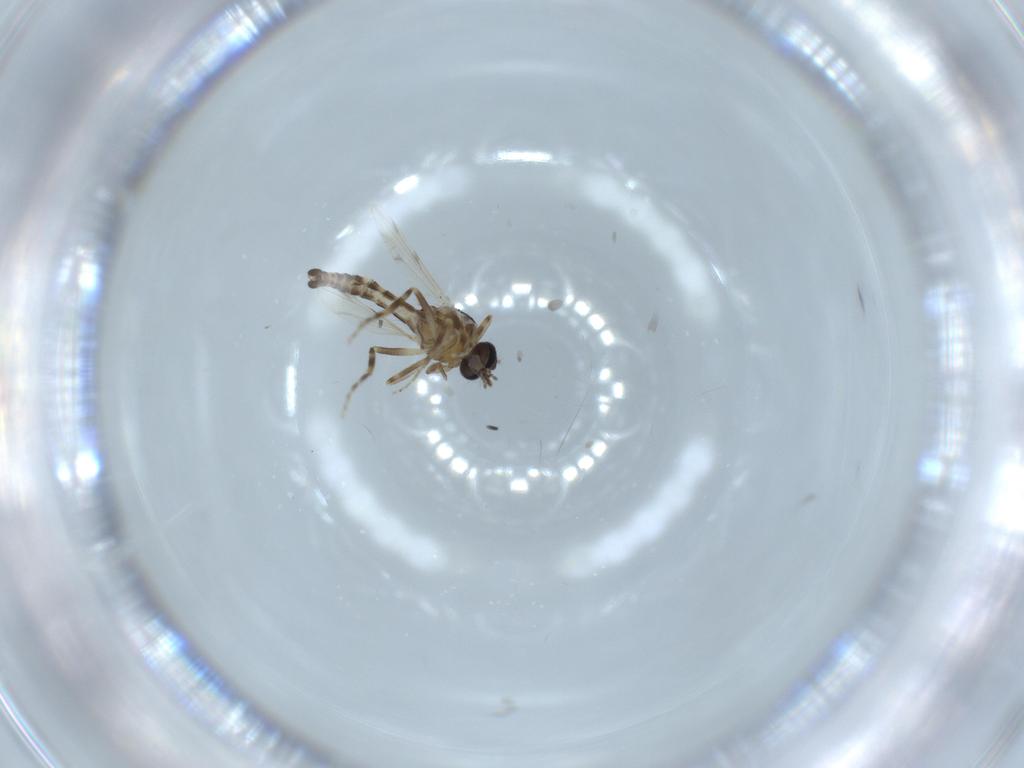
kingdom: Animalia
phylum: Arthropoda
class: Insecta
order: Diptera
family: Ceratopogonidae
